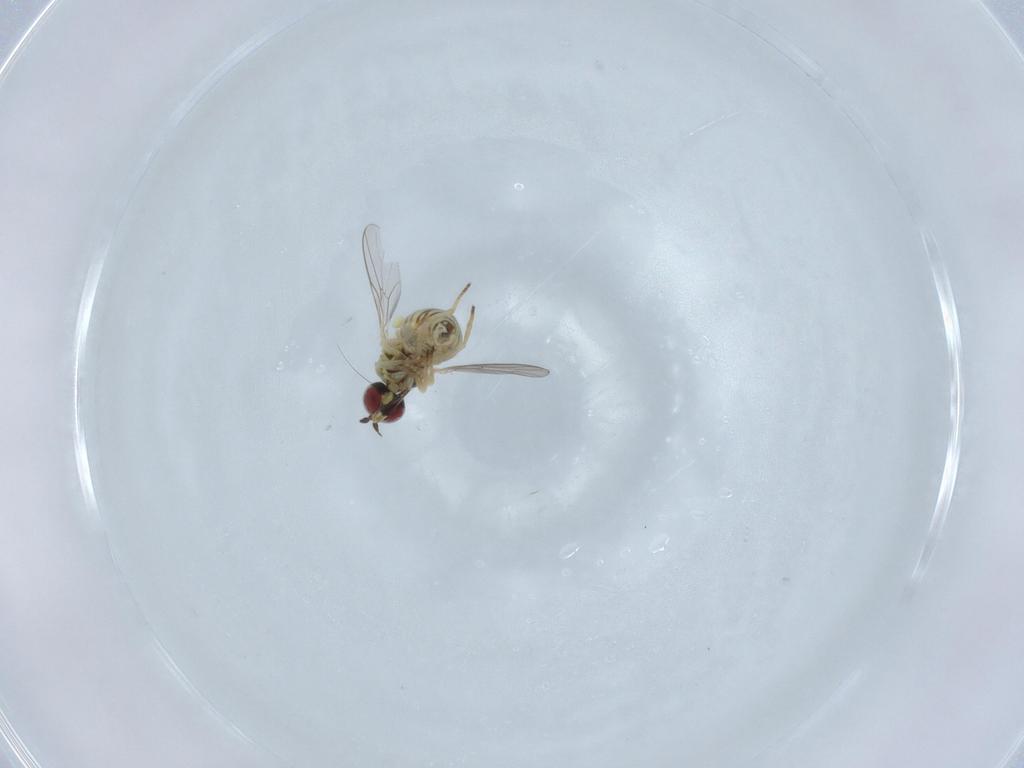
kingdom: Animalia
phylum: Arthropoda
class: Insecta
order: Diptera
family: Bombyliidae
